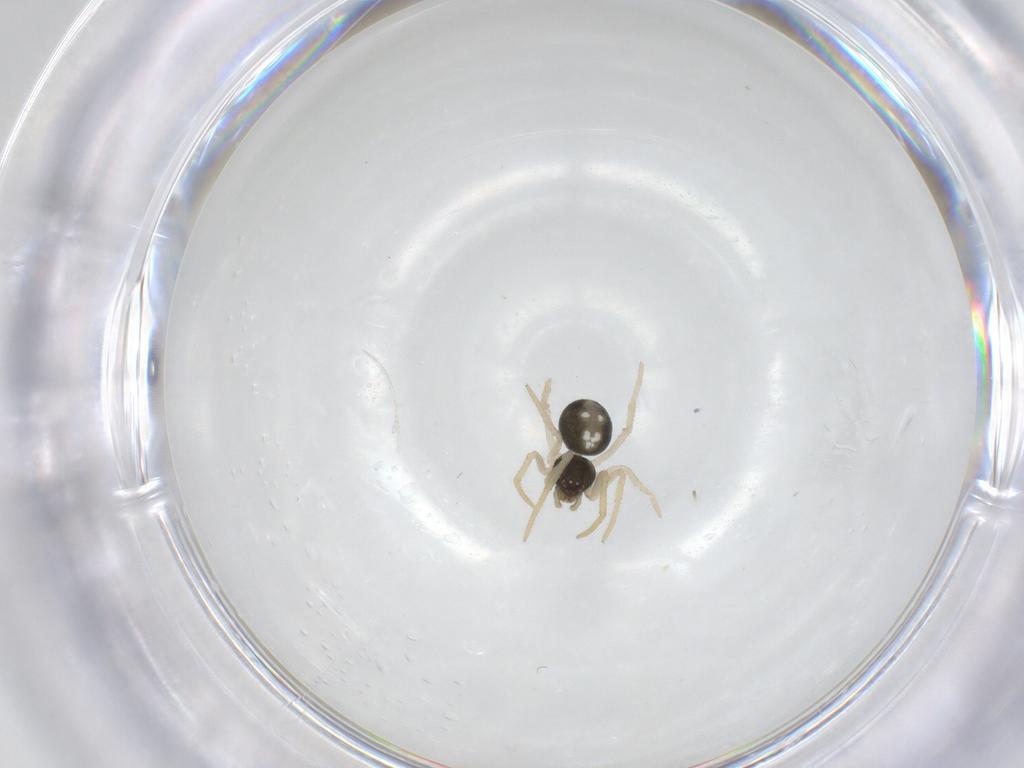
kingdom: Animalia
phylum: Arthropoda
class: Arachnida
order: Araneae
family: Theridiidae
